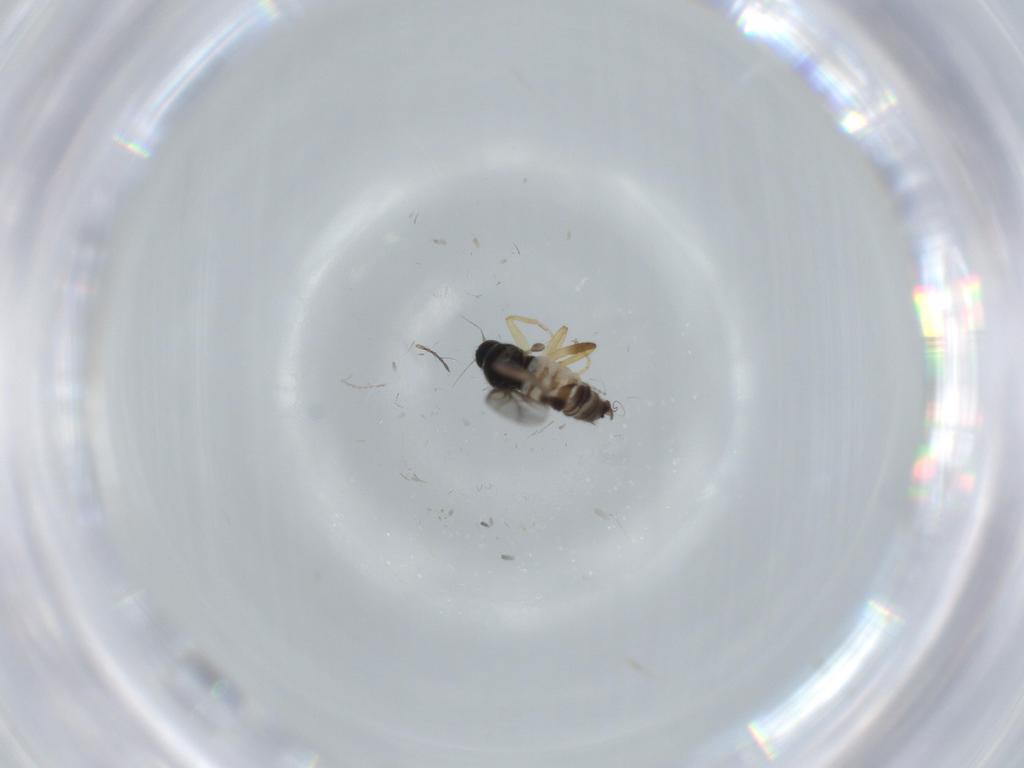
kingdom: Animalia
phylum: Arthropoda
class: Insecta
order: Diptera
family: Hybotidae
